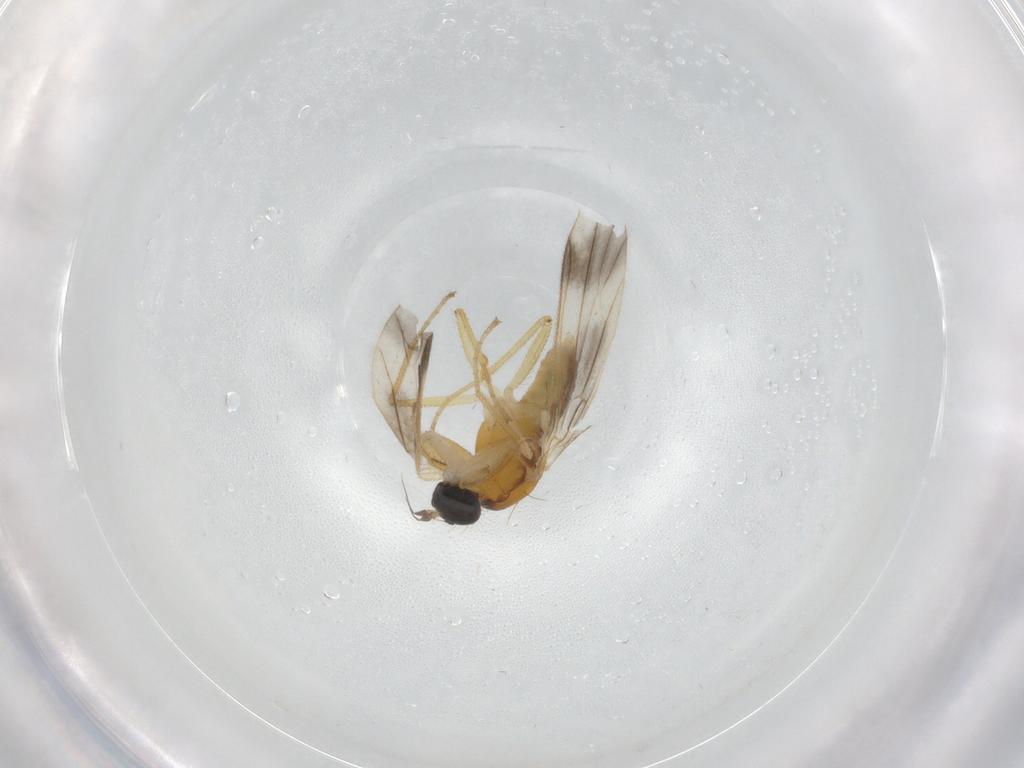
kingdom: Animalia
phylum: Arthropoda
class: Insecta
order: Diptera
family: Empididae
